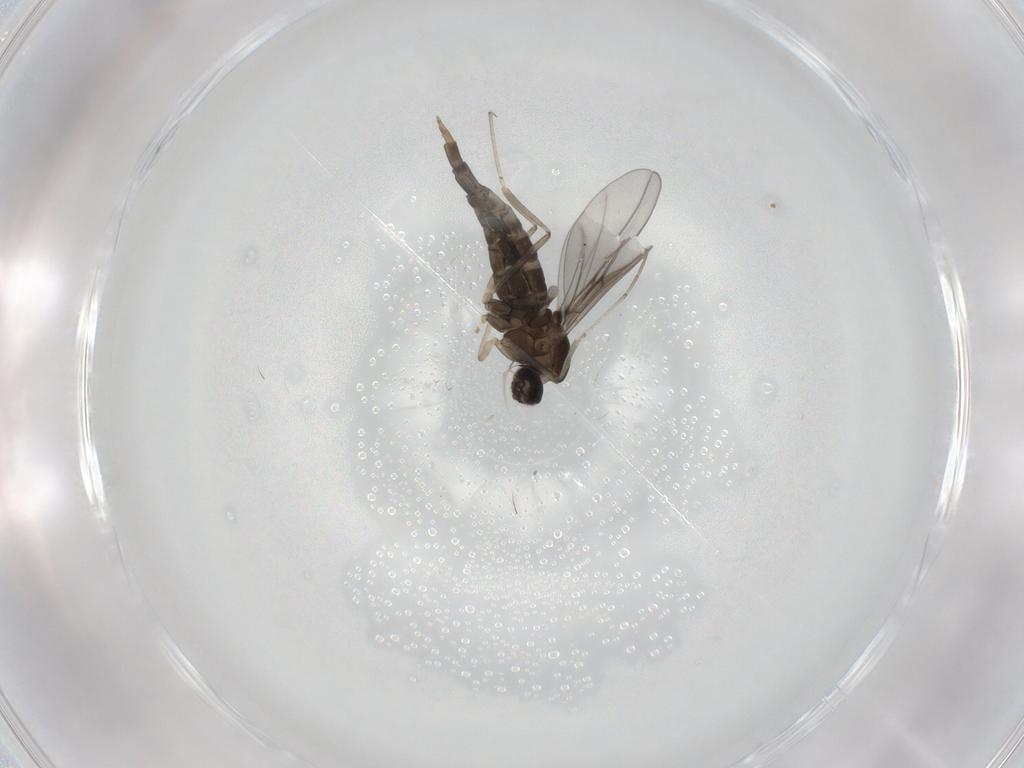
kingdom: Animalia
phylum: Arthropoda
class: Insecta
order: Diptera
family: Cecidomyiidae
